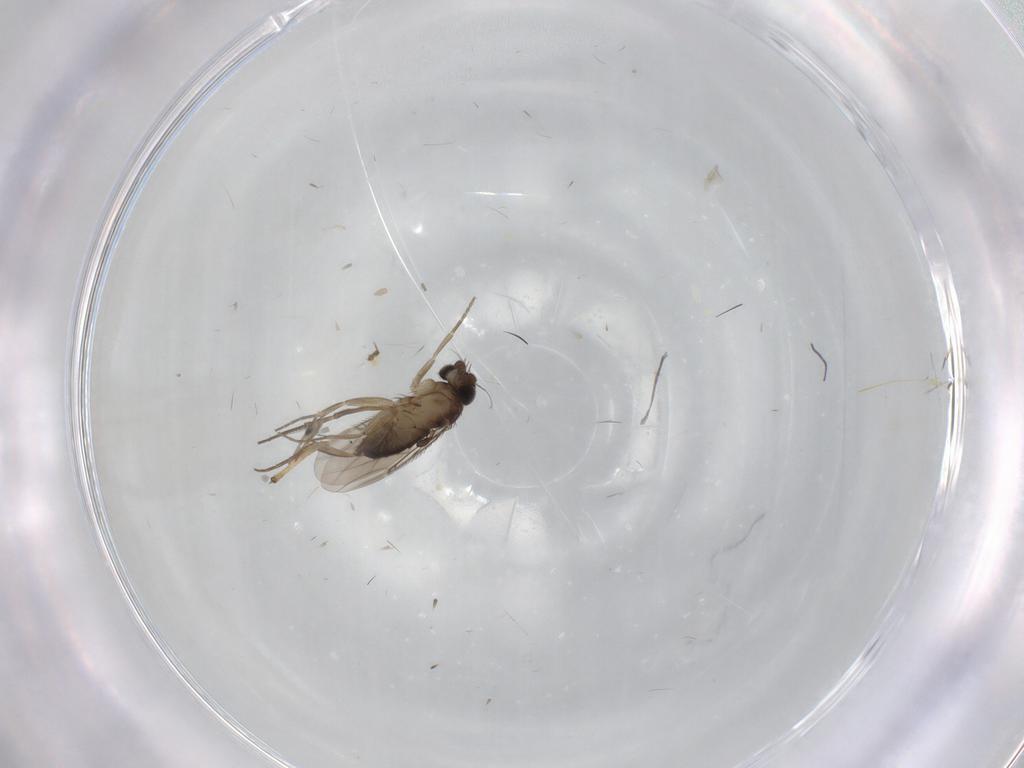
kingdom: Animalia
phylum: Arthropoda
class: Insecta
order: Diptera
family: Phoridae
